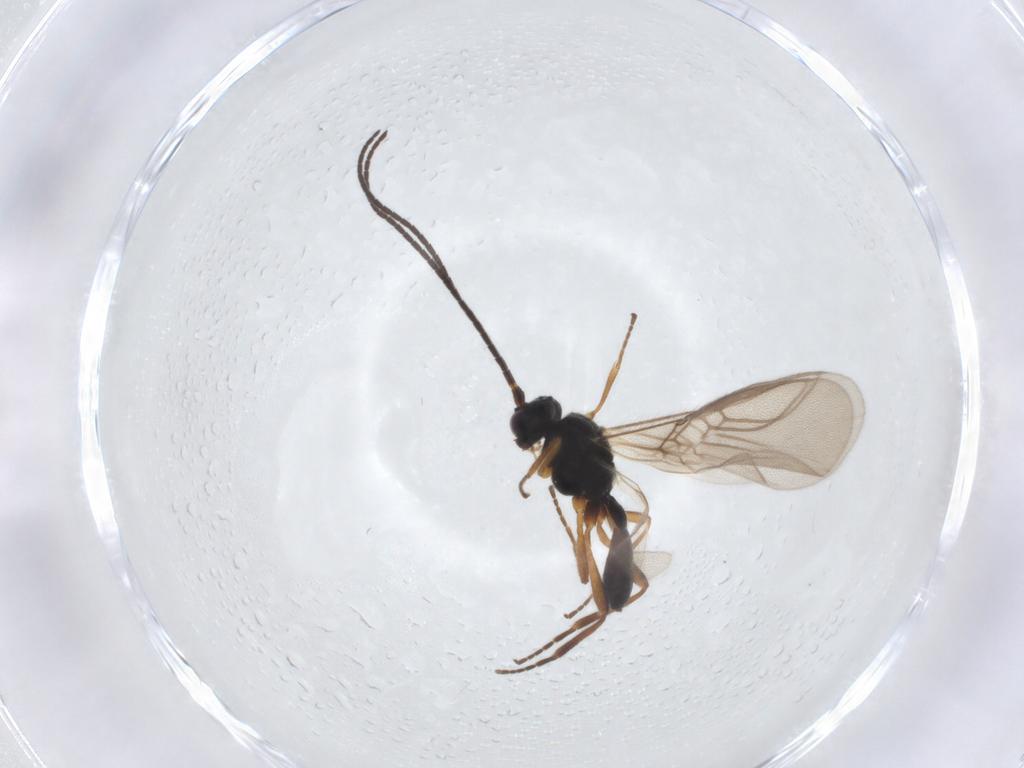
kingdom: Animalia
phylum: Arthropoda
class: Insecta
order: Hymenoptera
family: Braconidae
